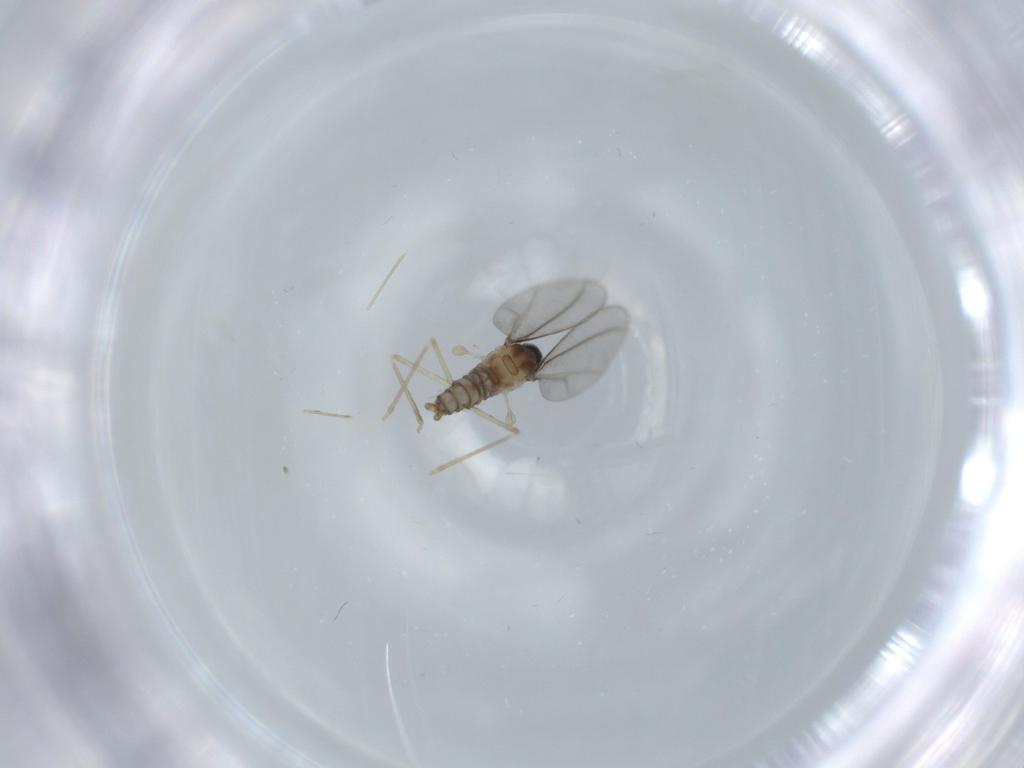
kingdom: Animalia
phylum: Arthropoda
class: Insecta
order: Diptera
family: Cecidomyiidae
